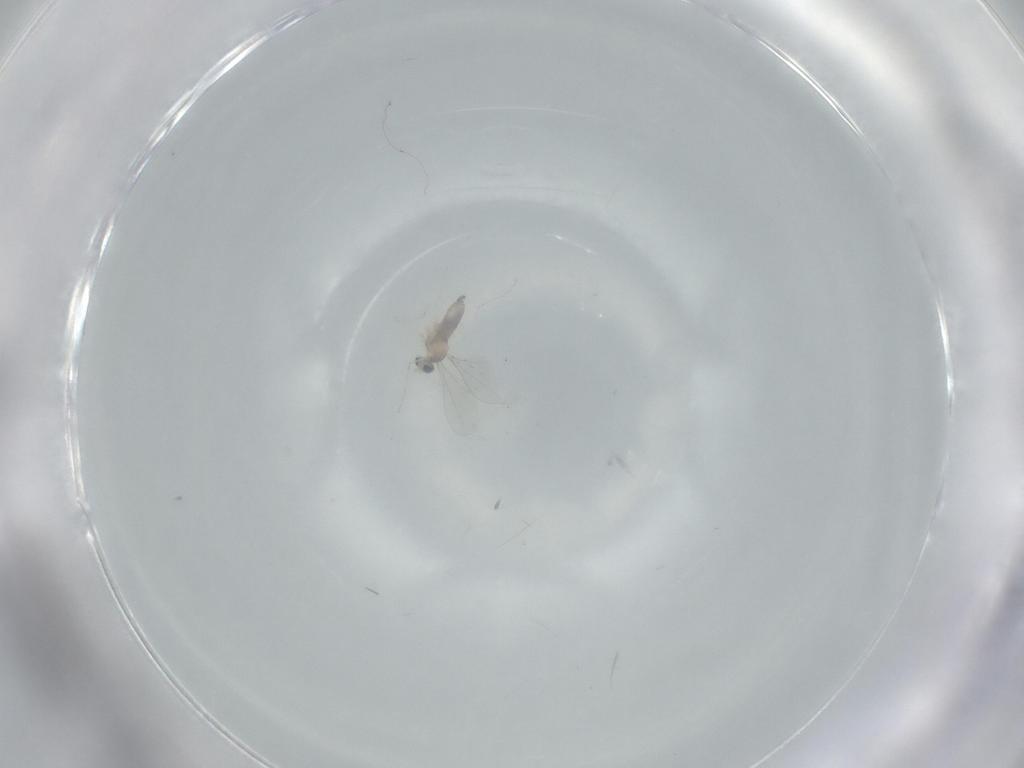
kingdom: Animalia
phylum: Arthropoda
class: Insecta
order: Diptera
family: Cecidomyiidae
